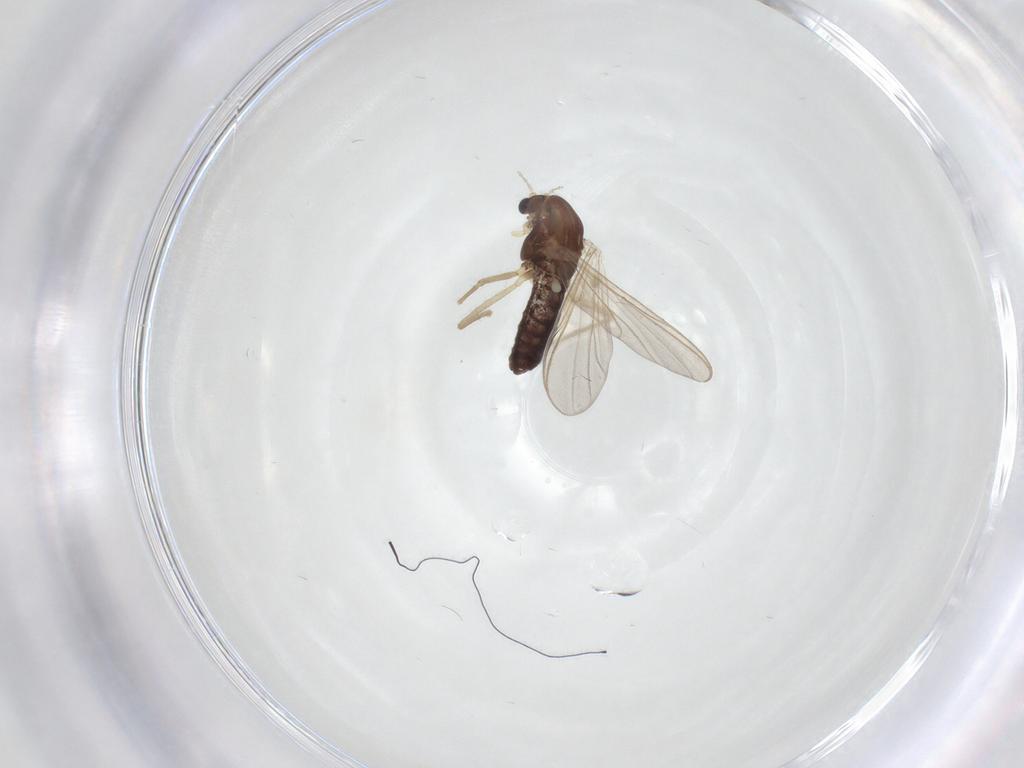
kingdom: Animalia
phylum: Arthropoda
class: Insecta
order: Diptera
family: Chironomidae
